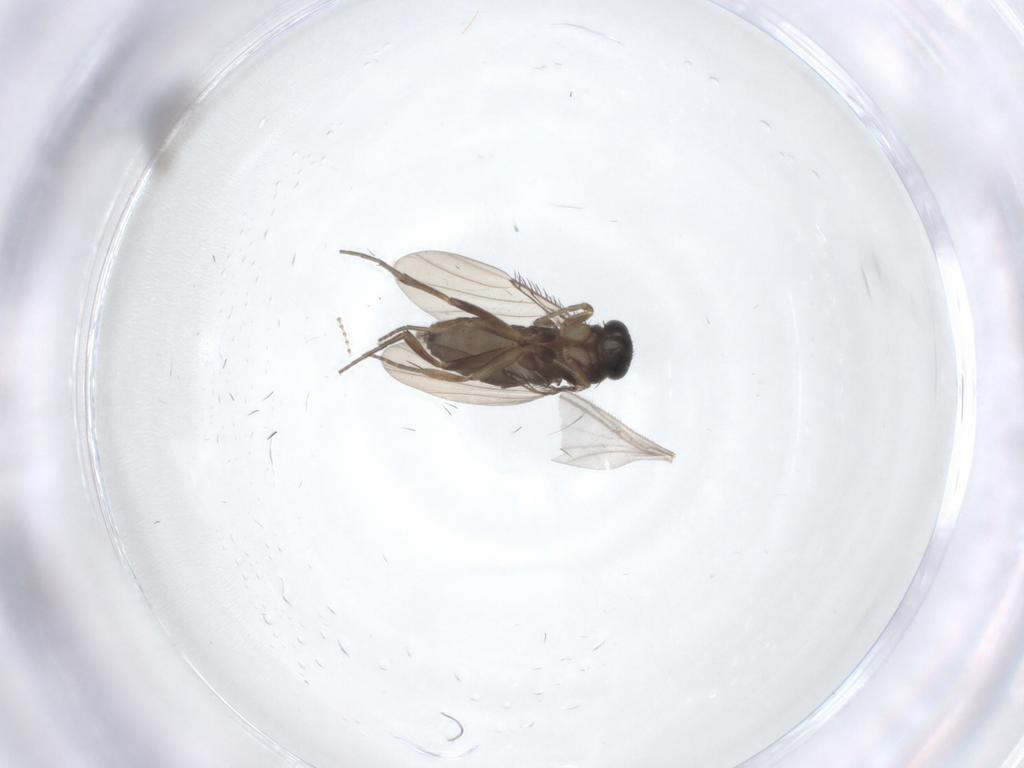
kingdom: Animalia
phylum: Arthropoda
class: Insecta
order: Diptera
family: Phoridae
